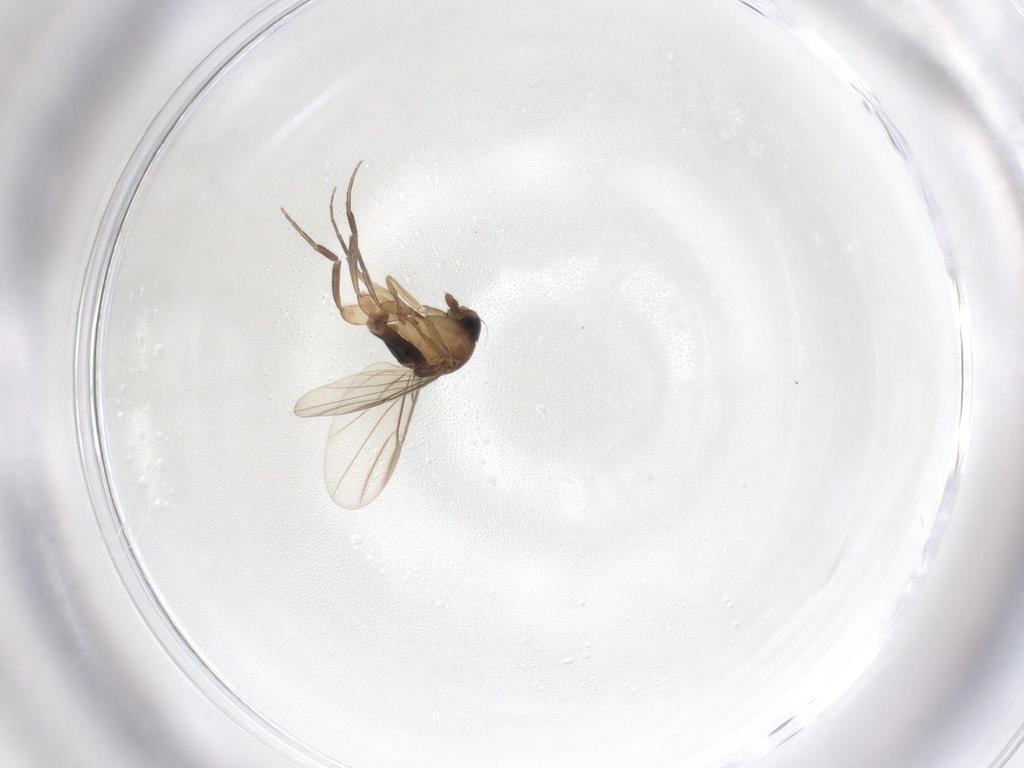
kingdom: Animalia
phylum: Arthropoda
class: Insecta
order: Diptera
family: Phoridae
